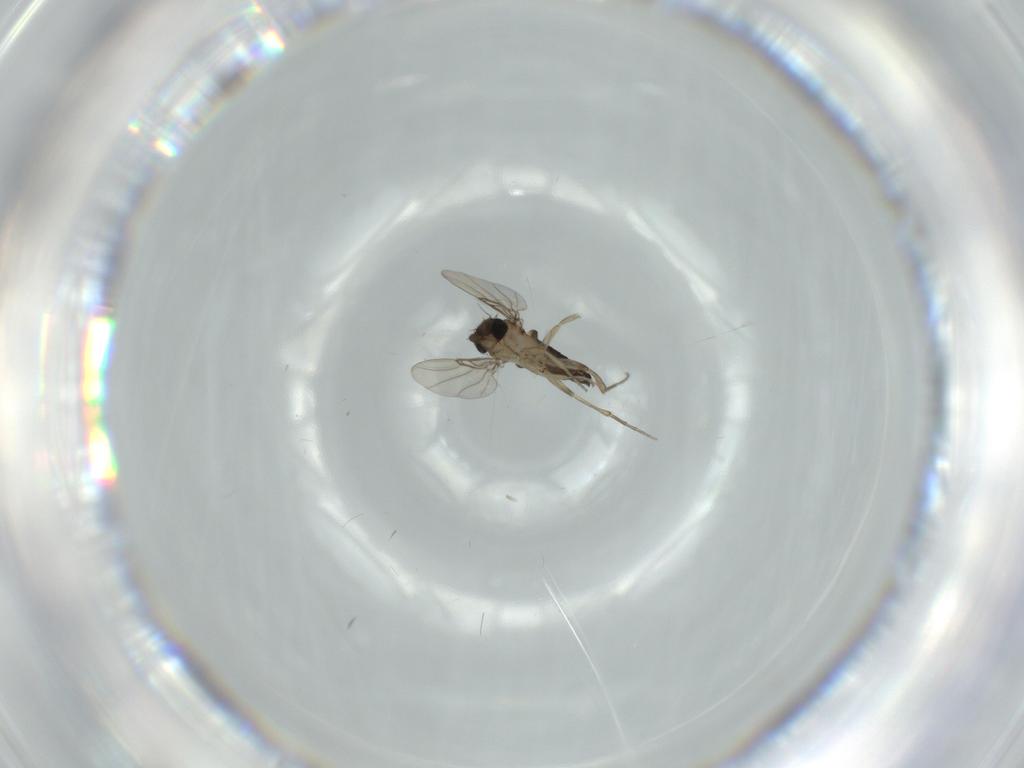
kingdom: Animalia
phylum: Arthropoda
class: Insecta
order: Diptera
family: Phoridae
